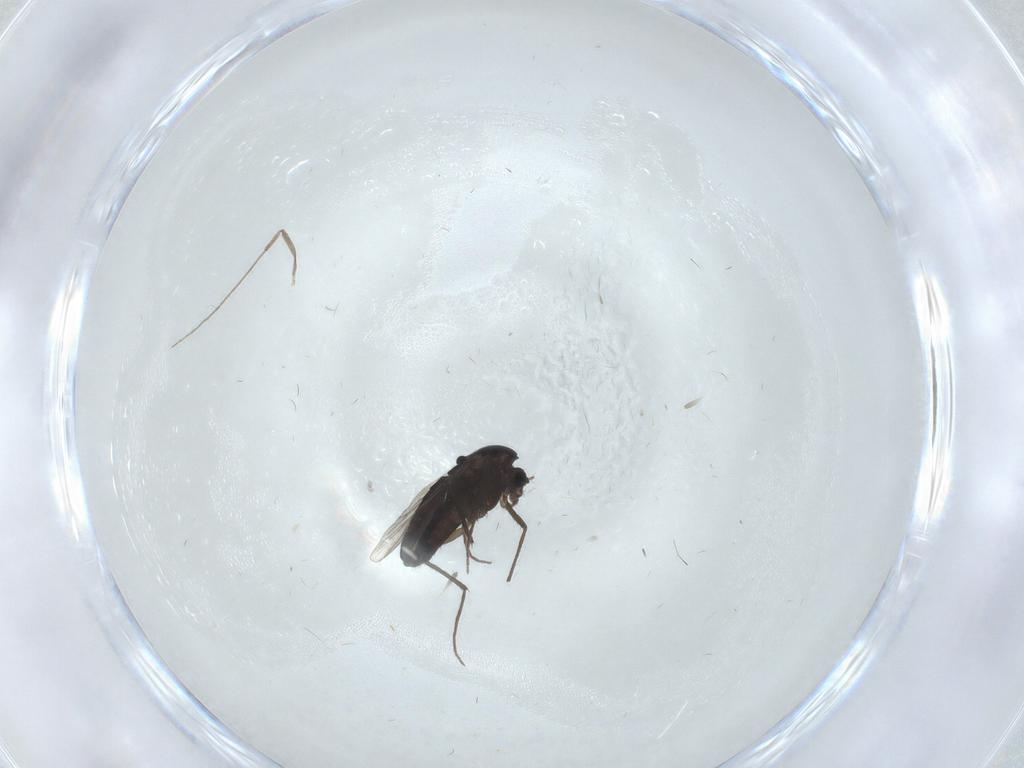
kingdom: Animalia
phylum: Arthropoda
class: Insecta
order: Diptera
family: Chironomidae
